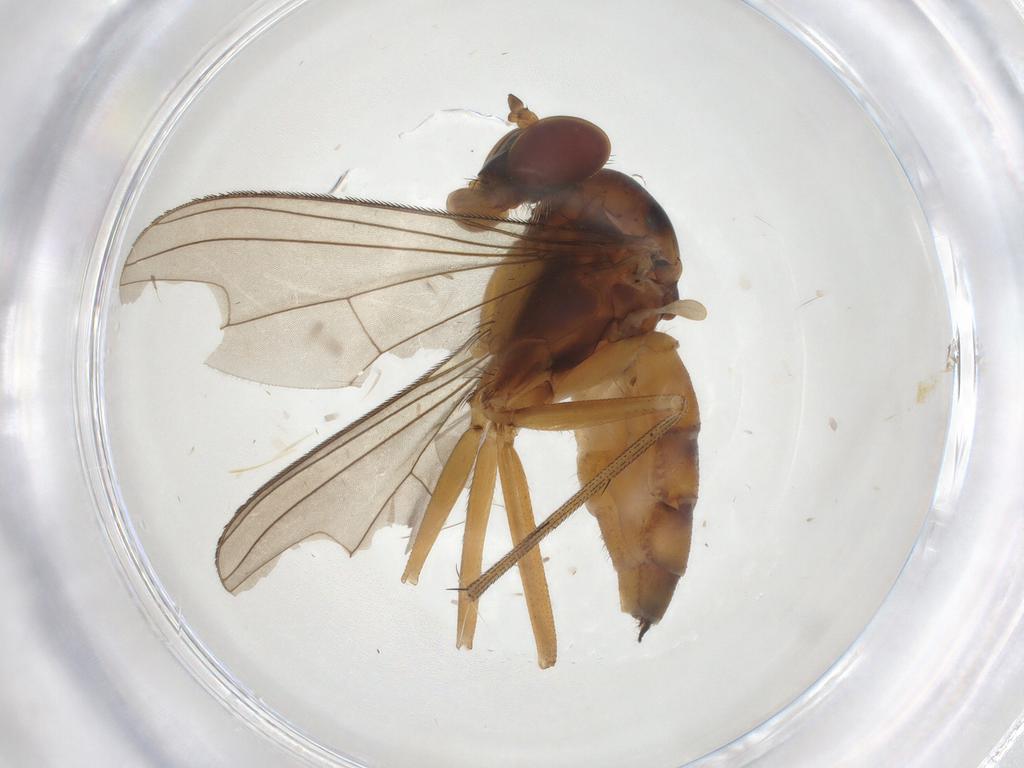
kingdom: Animalia
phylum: Arthropoda
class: Insecta
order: Diptera
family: Dolichopodidae
